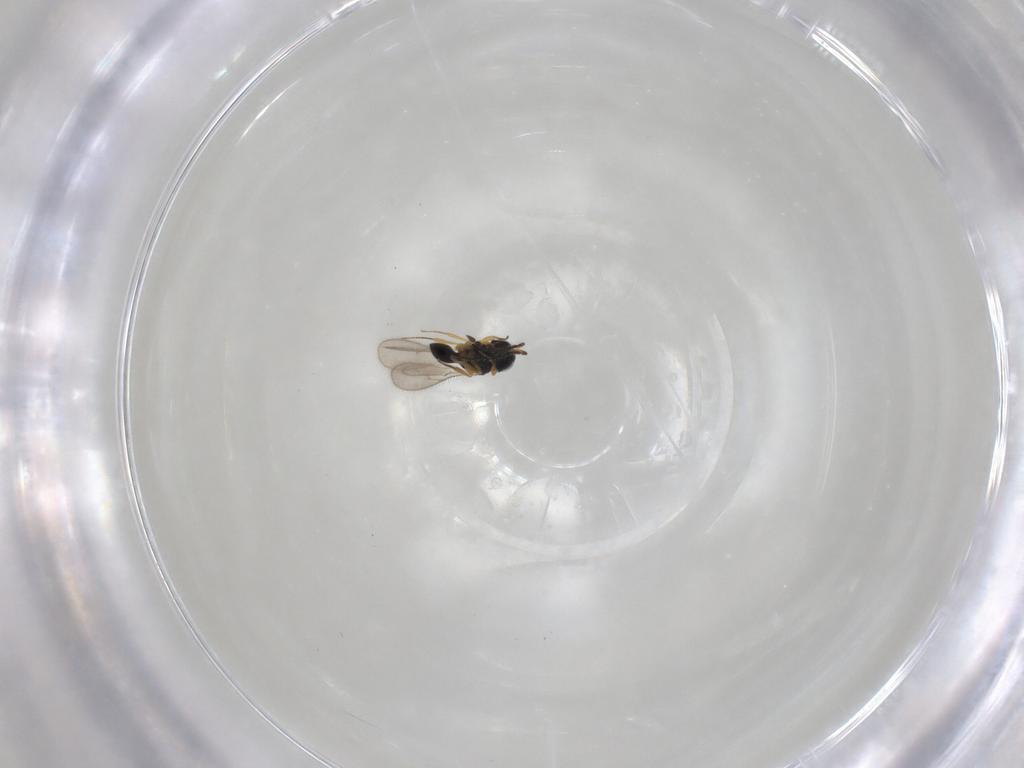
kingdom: Animalia
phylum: Arthropoda
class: Insecta
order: Hymenoptera
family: Scelionidae
